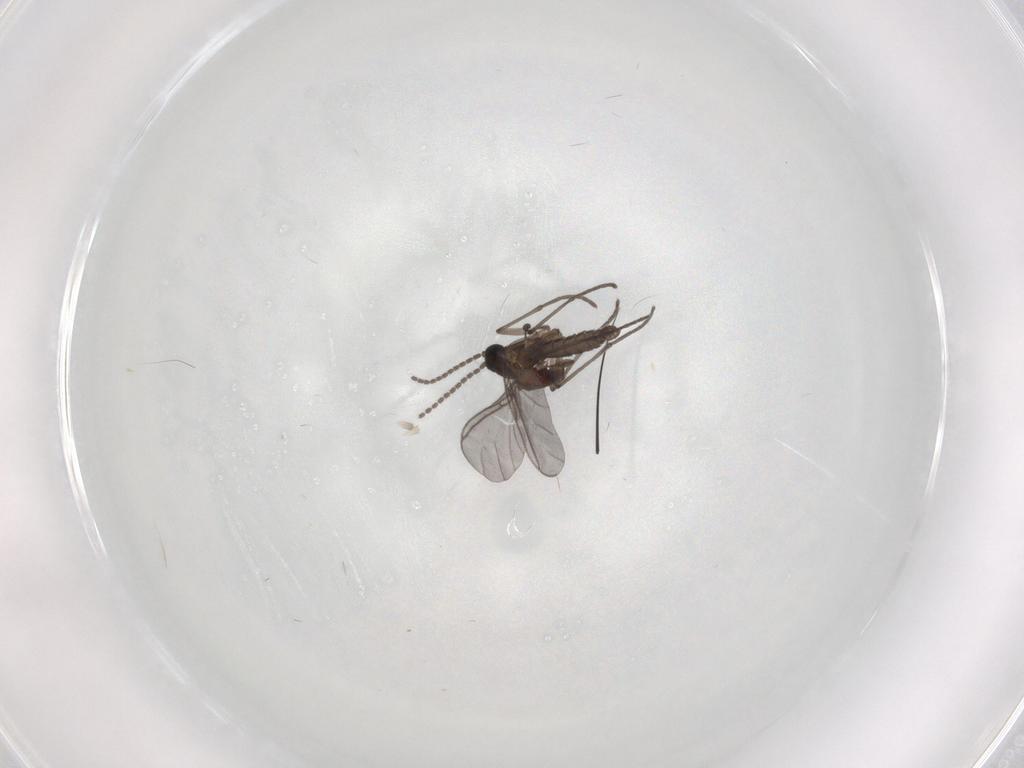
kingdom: Animalia
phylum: Arthropoda
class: Insecta
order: Diptera
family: Sciaridae
